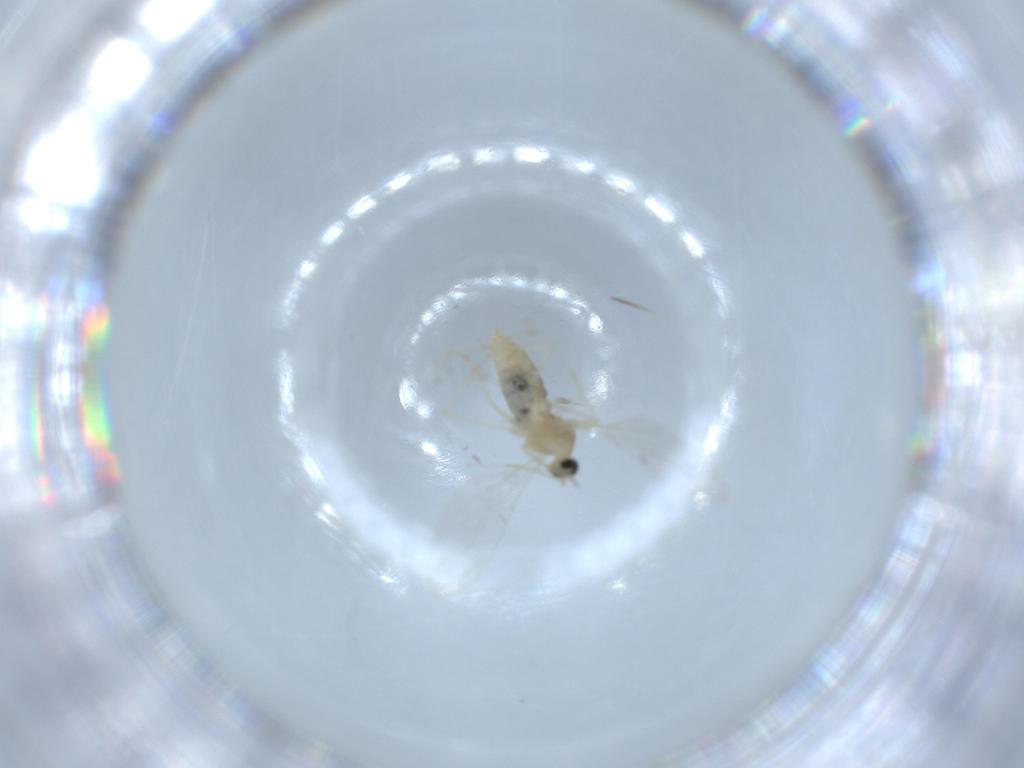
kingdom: Animalia
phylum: Arthropoda
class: Insecta
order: Diptera
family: Cecidomyiidae
